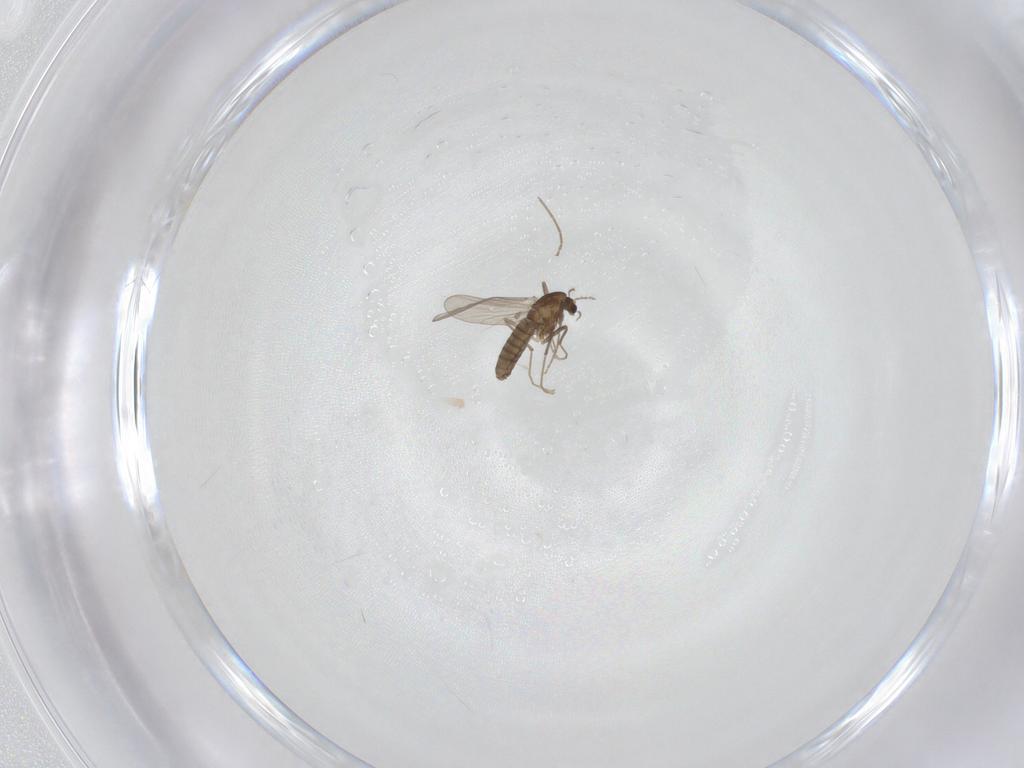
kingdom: Animalia
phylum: Arthropoda
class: Insecta
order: Diptera
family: Chironomidae
